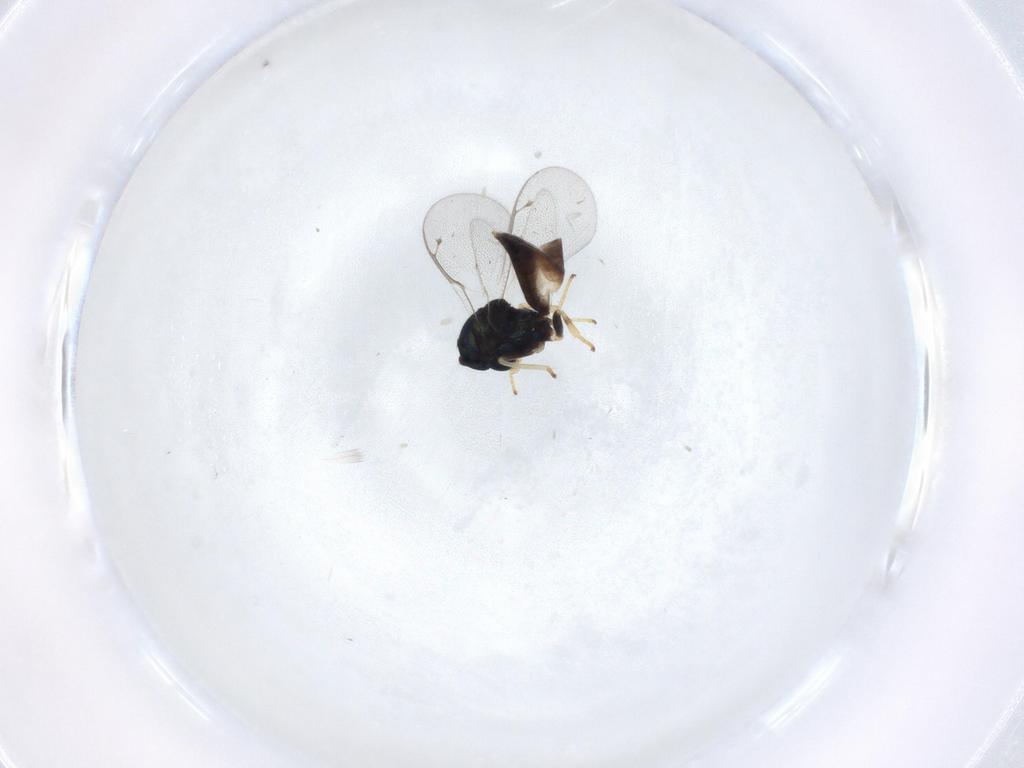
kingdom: Animalia
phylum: Arthropoda
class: Insecta
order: Hymenoptera
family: Pteromalidae
